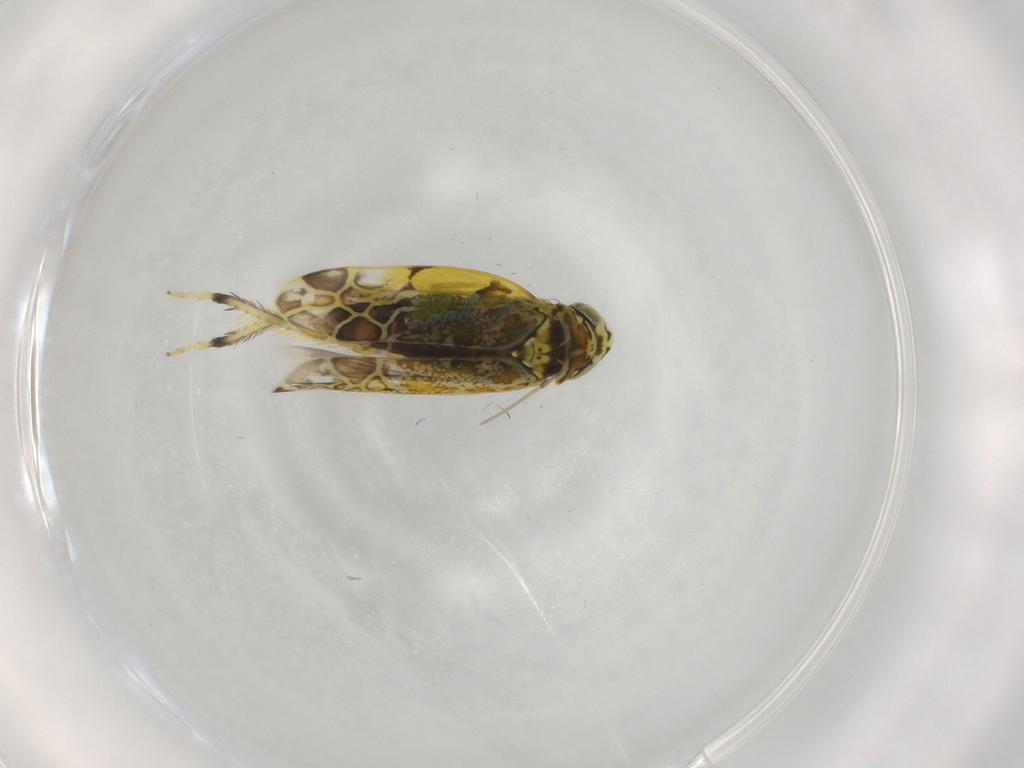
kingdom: Animalia
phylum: Arthropoda
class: Insecta
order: Hemiptera
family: Cicadellidae
